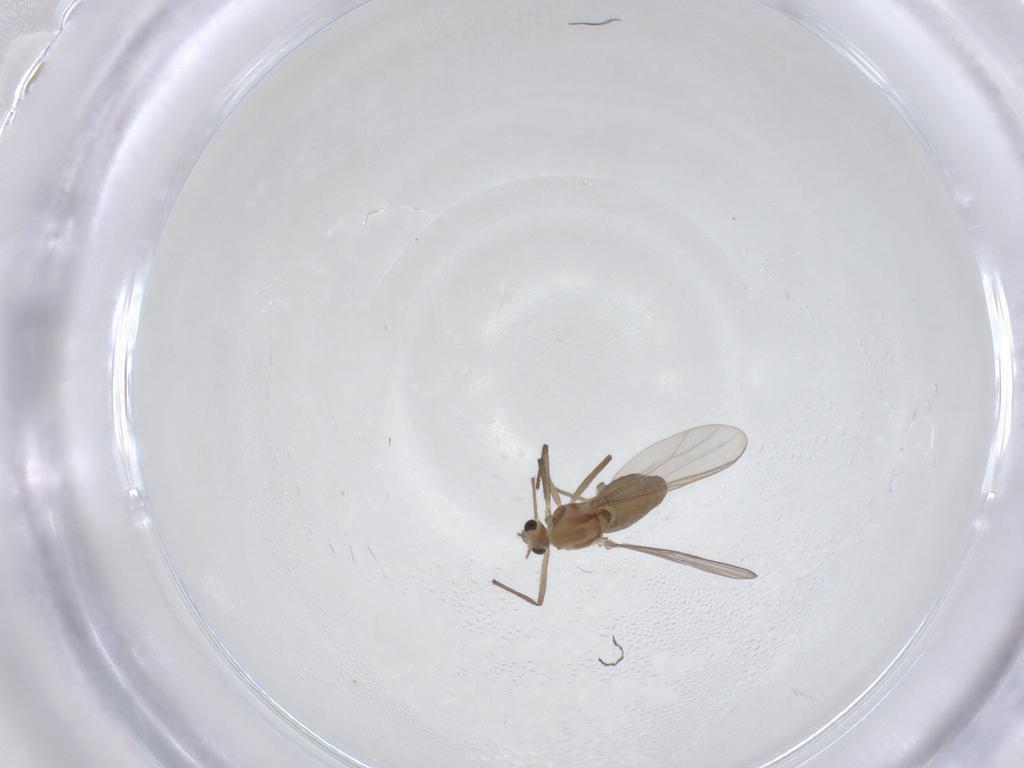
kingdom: Animalia
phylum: Arthropoda
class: Insecta
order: Diptera
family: Chironomidae
